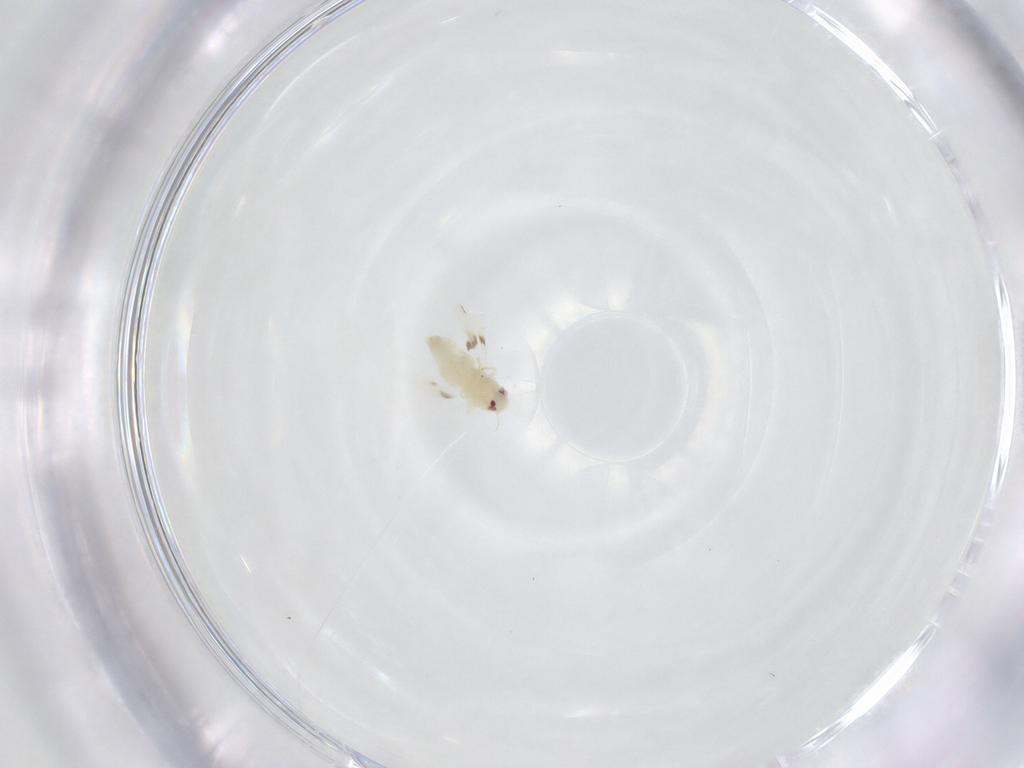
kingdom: Animalia
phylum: Arthropoda
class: Insecta
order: Hemiptera
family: Aleyrodidae
